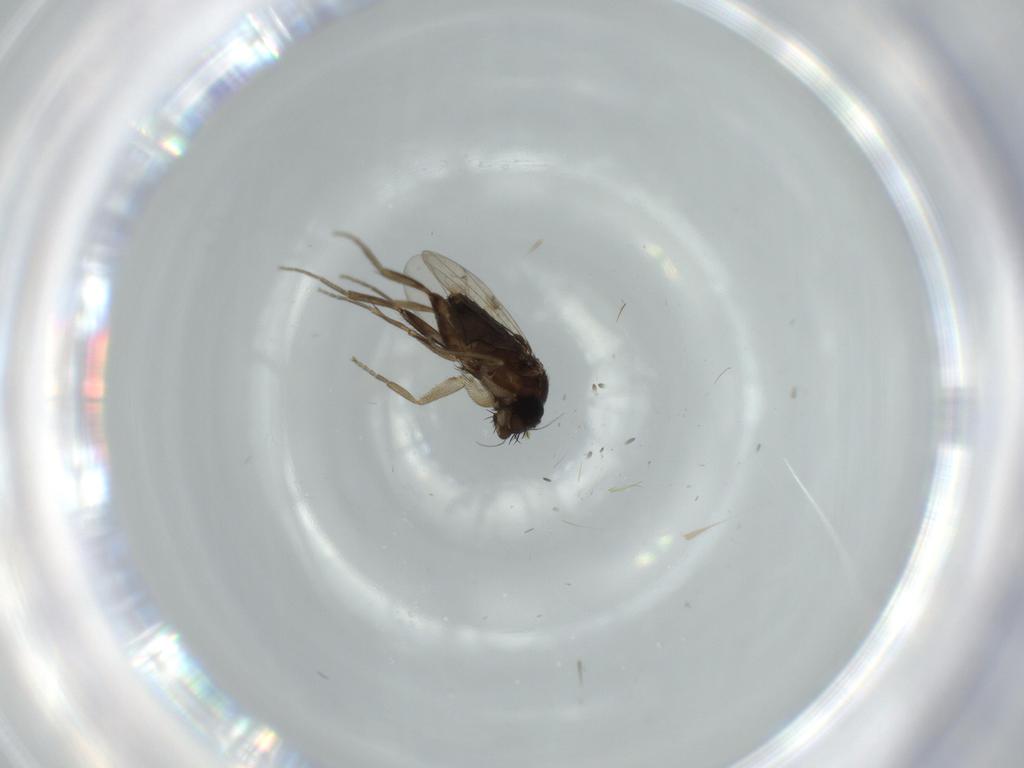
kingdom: Animalia
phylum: Arthropoda
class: Insecta
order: Diptera
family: Phoridae
